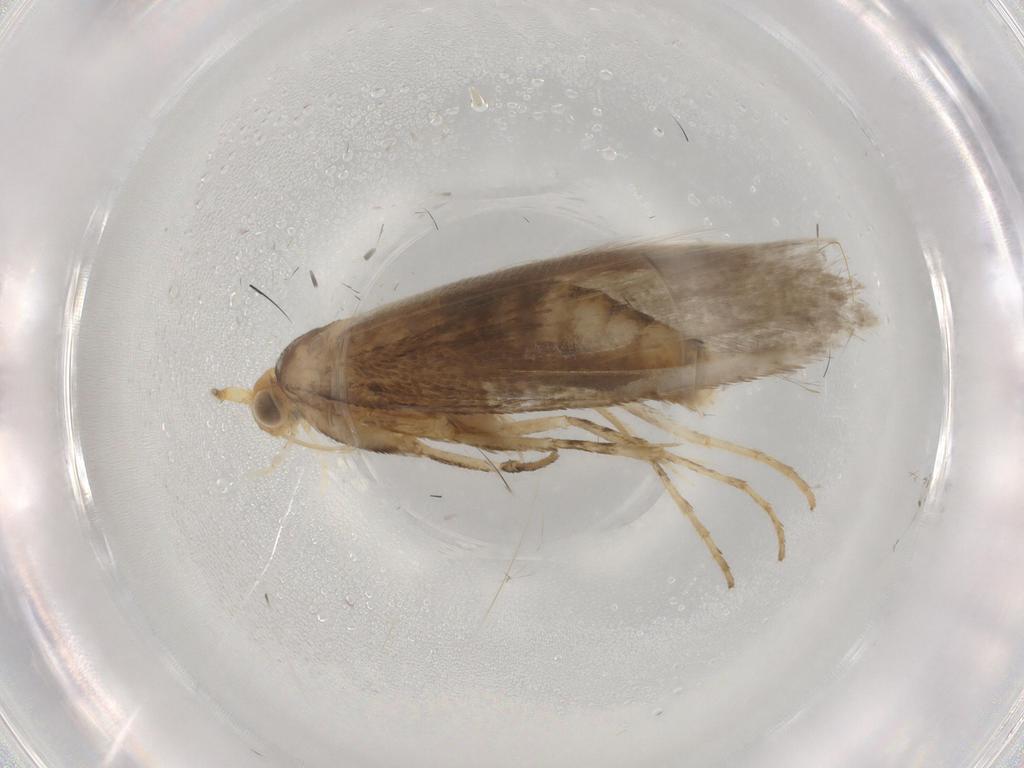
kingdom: Animalia
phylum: Arthropoda
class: Insecta
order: Lepidoptera
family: Argyresthiidae
